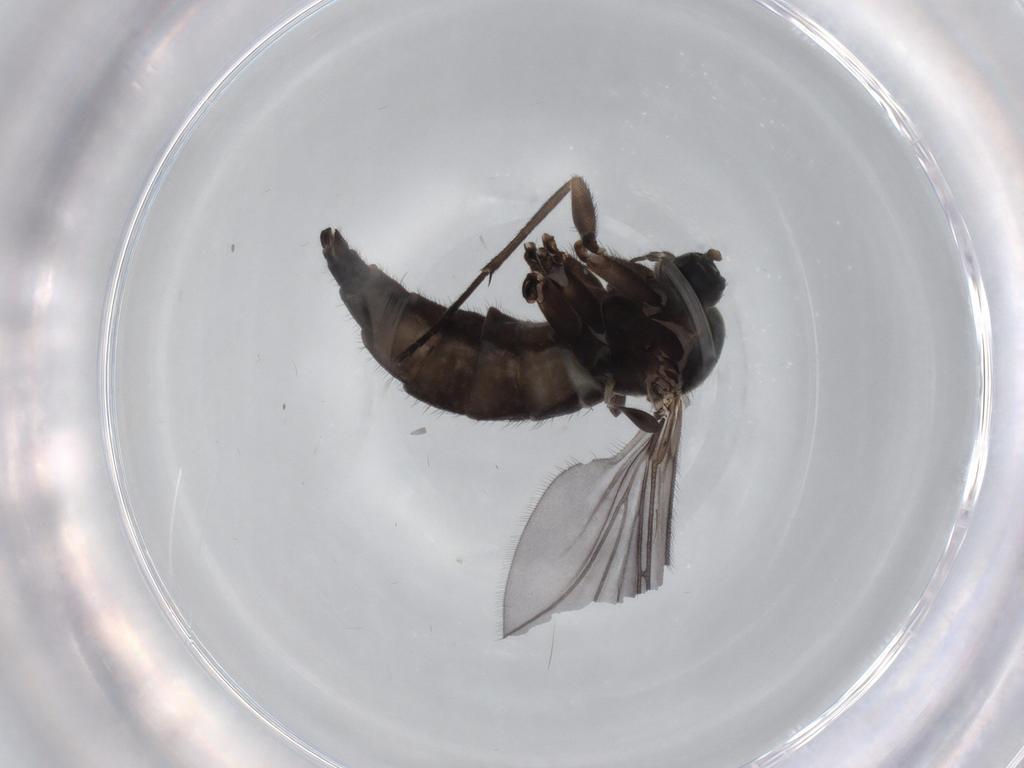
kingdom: Animalia
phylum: Arthropoda
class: Insecta
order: Diptera
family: Sciaridae
